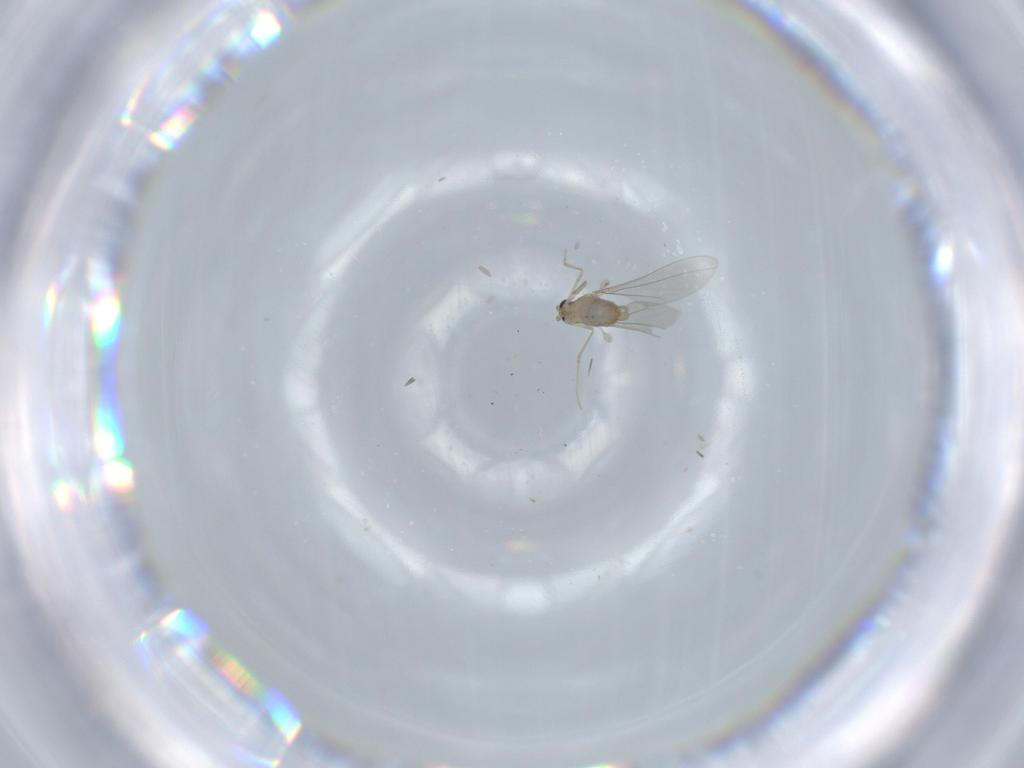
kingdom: Animalia
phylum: Arthropoda
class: Insecta
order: Diptera
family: Cecidomyiidae
